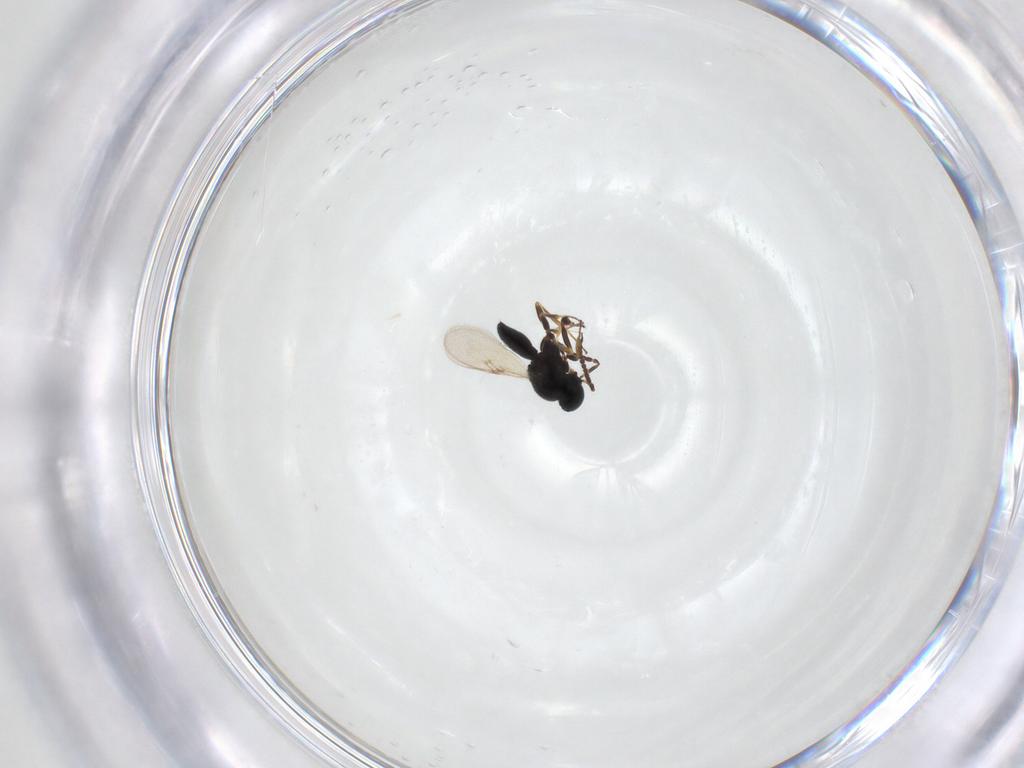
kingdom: Animalia
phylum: Arthropoda
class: Insecta
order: Hymenoptera
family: Scelionidae
